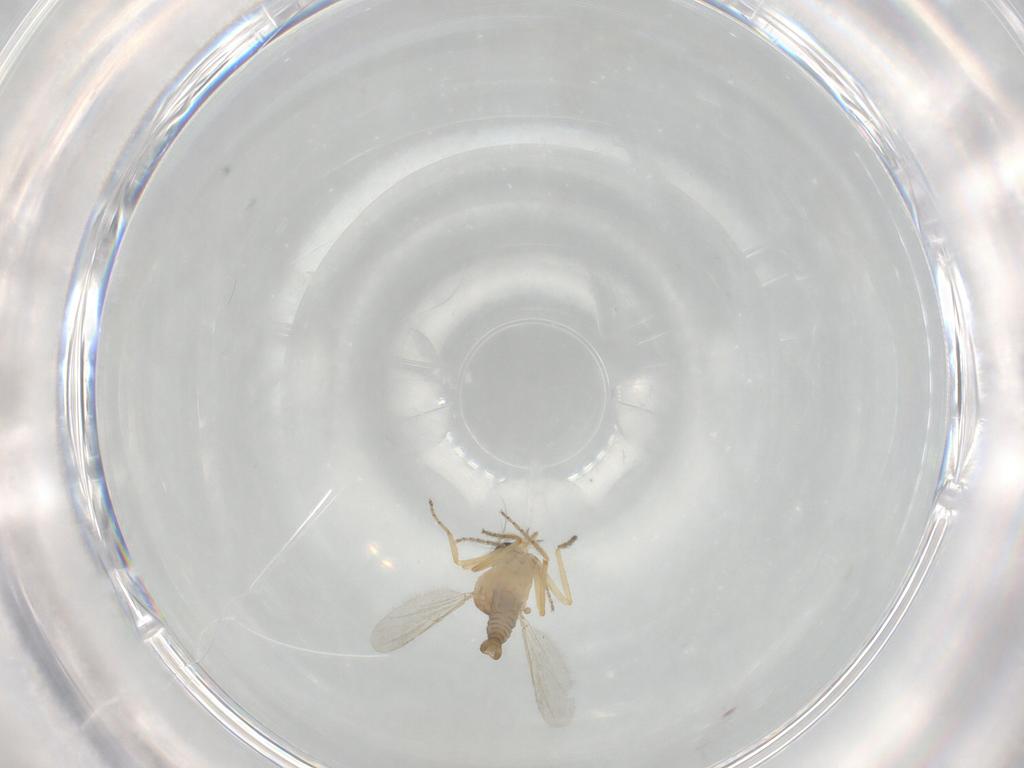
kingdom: Animalia
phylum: Arthropoda
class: Insecta
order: Diptera
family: Ceratopogonidae
